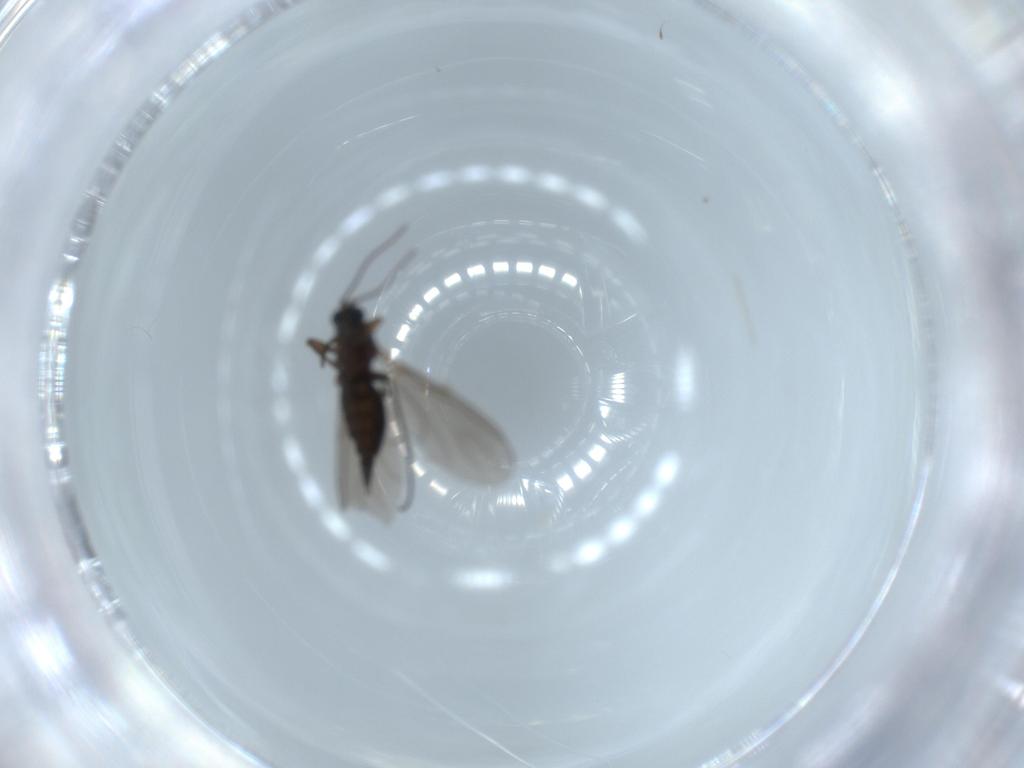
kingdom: Animalia
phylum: Arthropoda
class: Insecta
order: Diptera
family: Sciaridae
